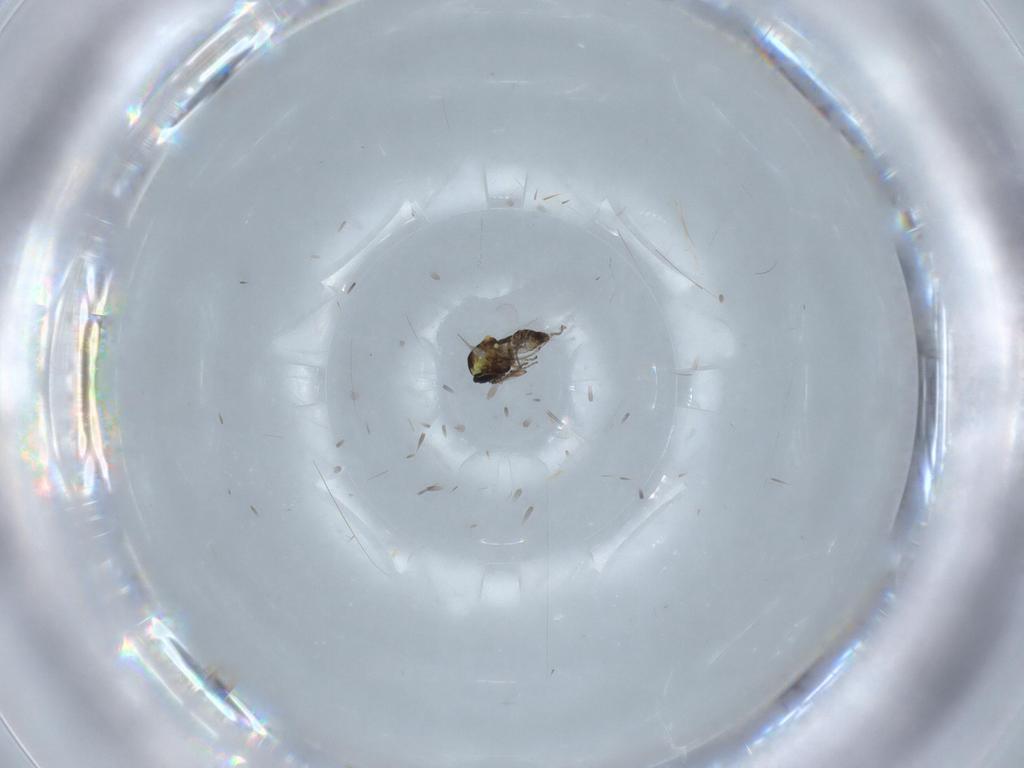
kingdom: Animalia
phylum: Arthropoda
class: Insecta
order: Diptera
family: Ceratopogonidae
